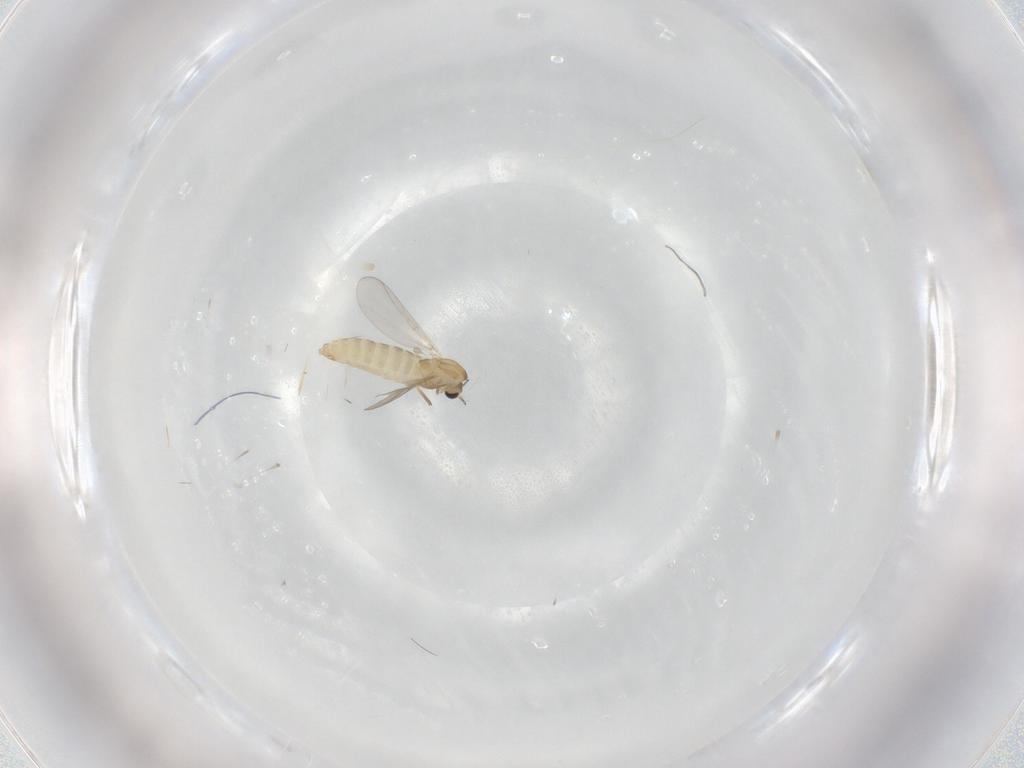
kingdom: Animalia
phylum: Arthropoda
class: Insecta
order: Diptera
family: Chironomidae
